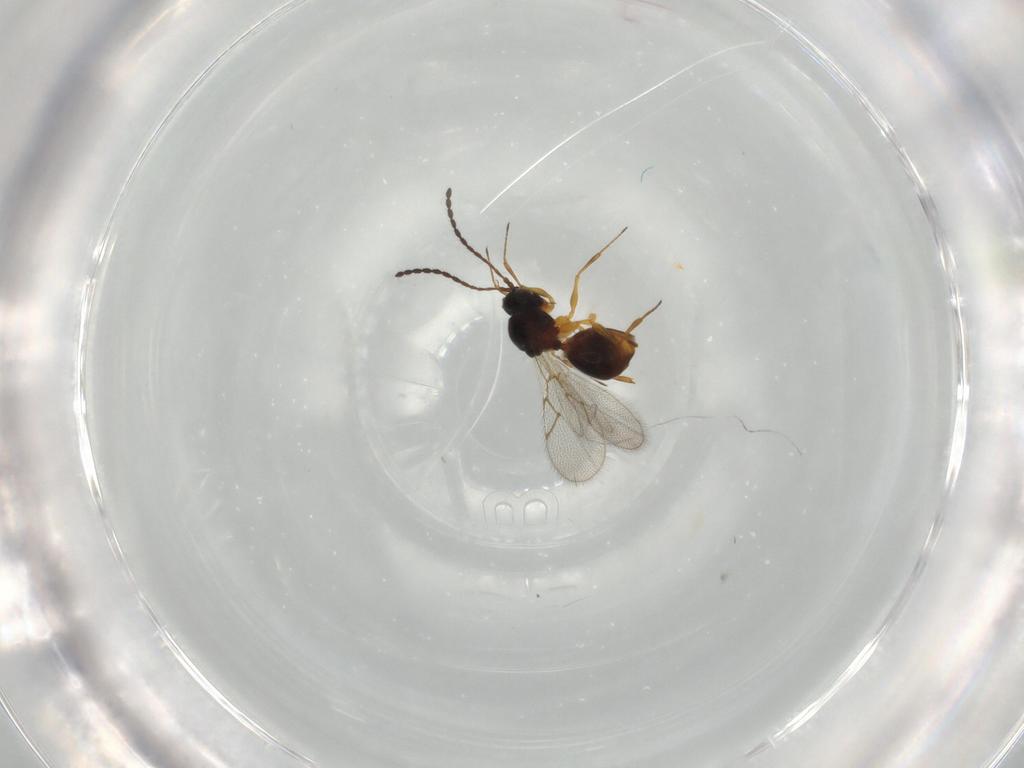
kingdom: Animalia
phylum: Arthropoda
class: Insecta
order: Hymenoptera
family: Figitidae
